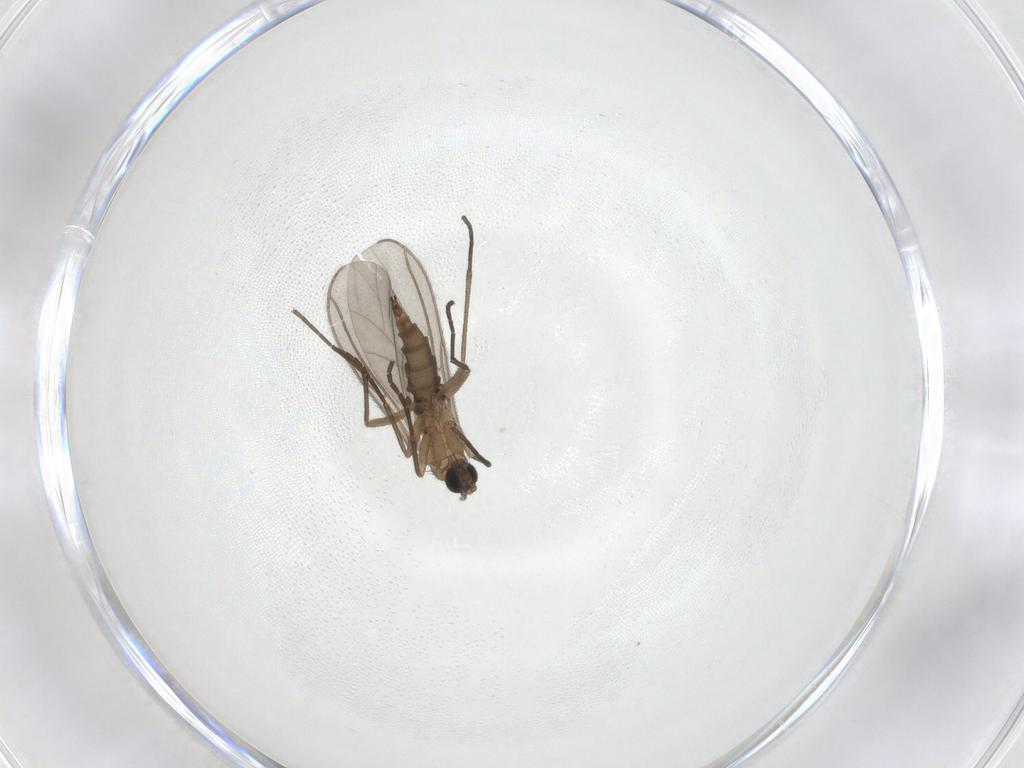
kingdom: Animalia
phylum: Arthropoda
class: Insecta
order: Diptera
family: Sciaridae
